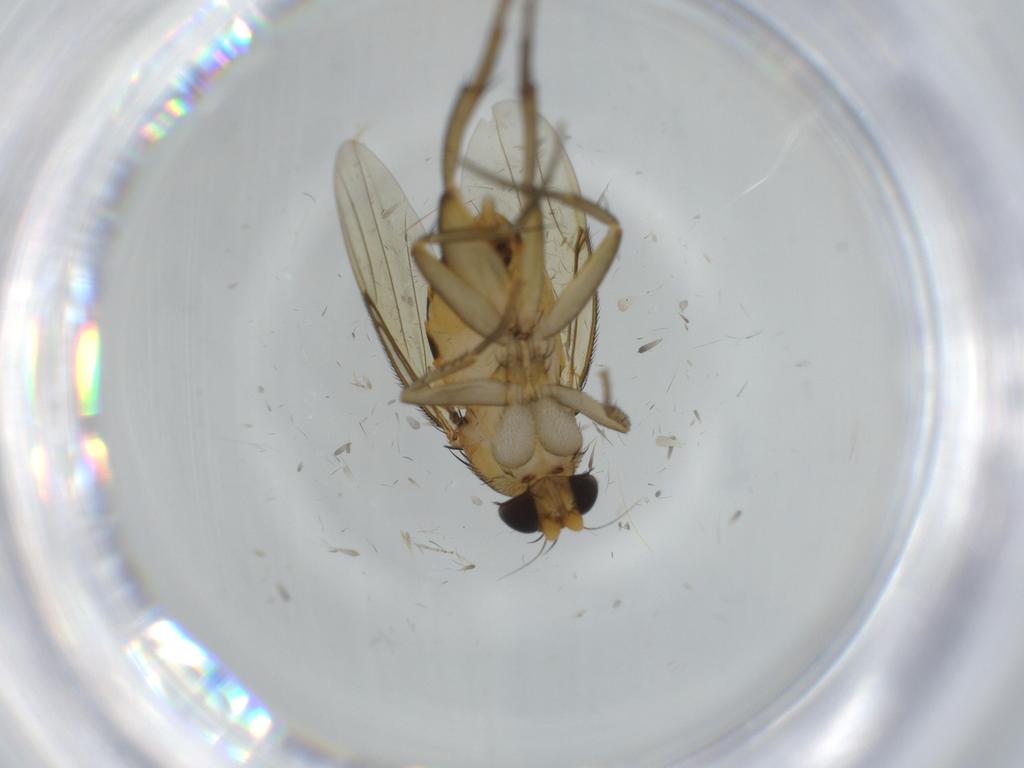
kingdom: Animalia
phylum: Arthropoda
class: Insecta
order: Diptera
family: Phoridae
